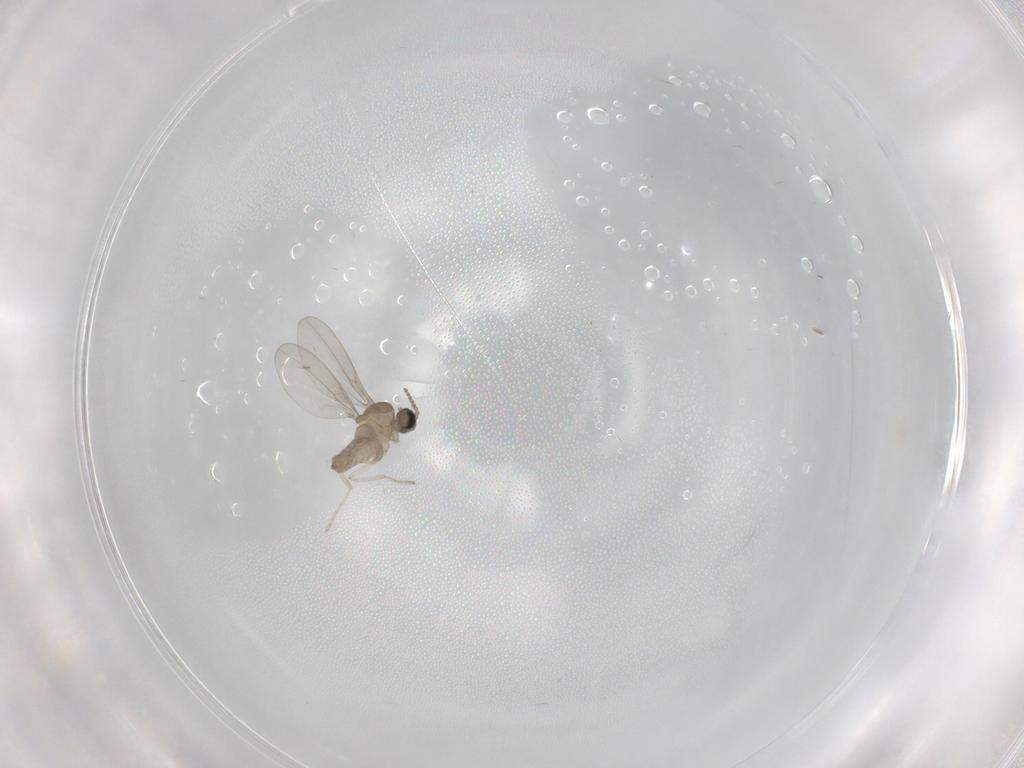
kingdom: Animalia
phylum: Arthropoda
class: Insecta
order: Diptera
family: Cecidomyiidae
